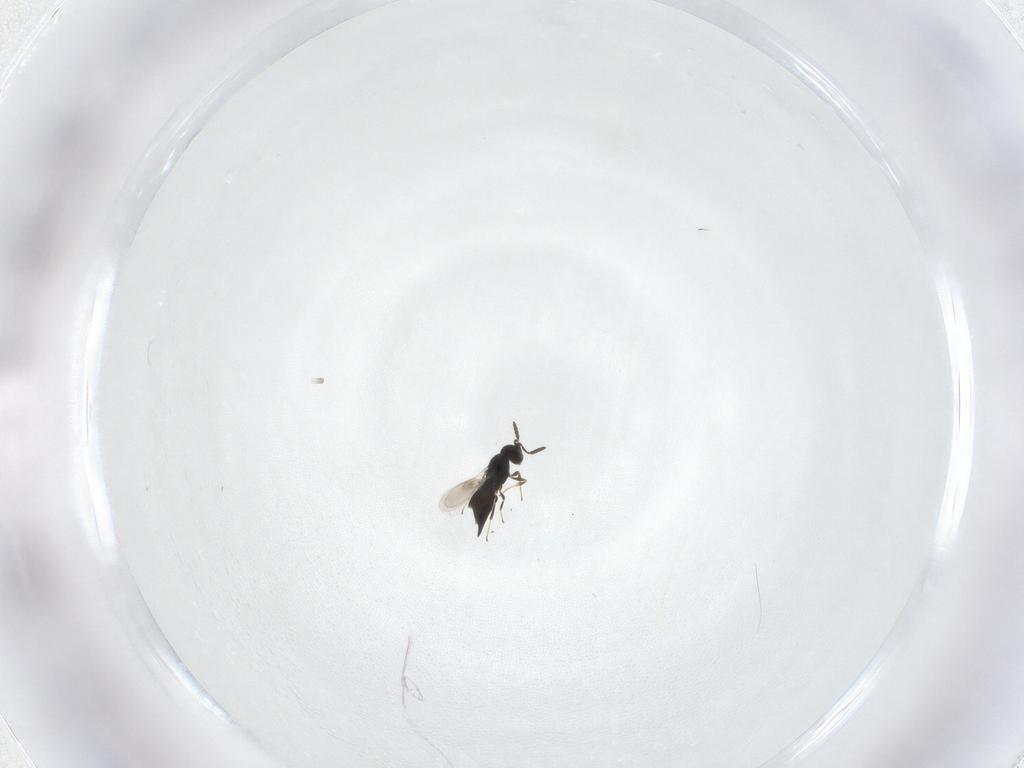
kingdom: Animalia
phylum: Arthropoda
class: Insecta
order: Hymenoptera
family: Scelionidae
